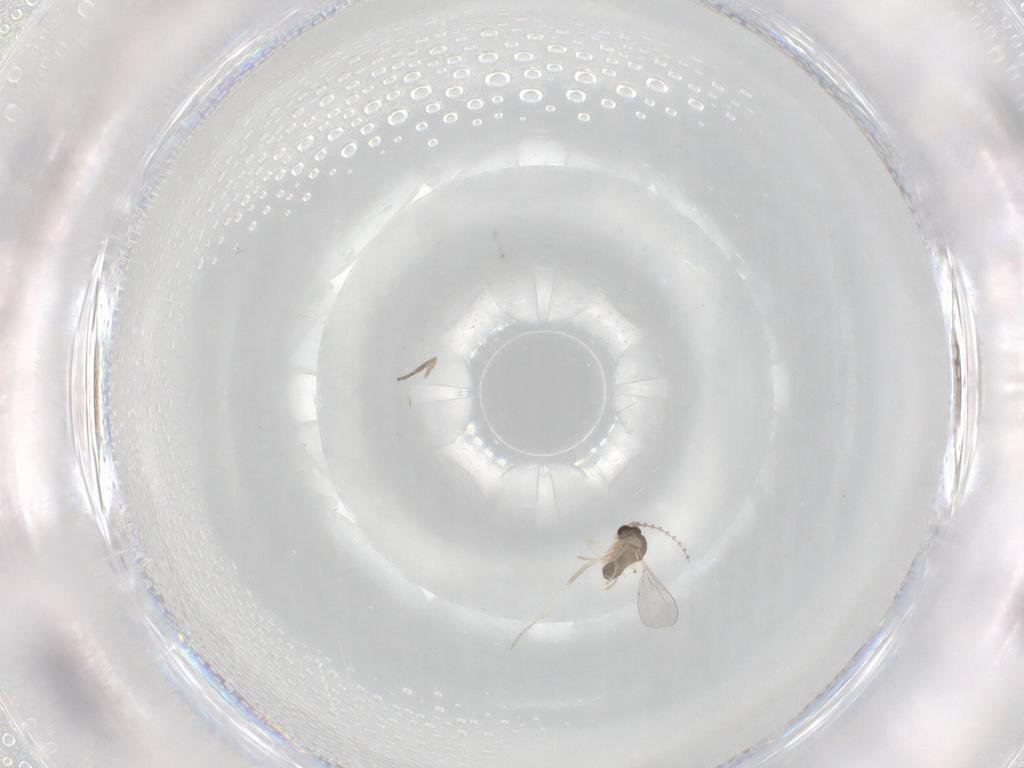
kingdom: Animalia
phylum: Arthropoda
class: Insecta
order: Diptera
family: Cecidomyiidae
